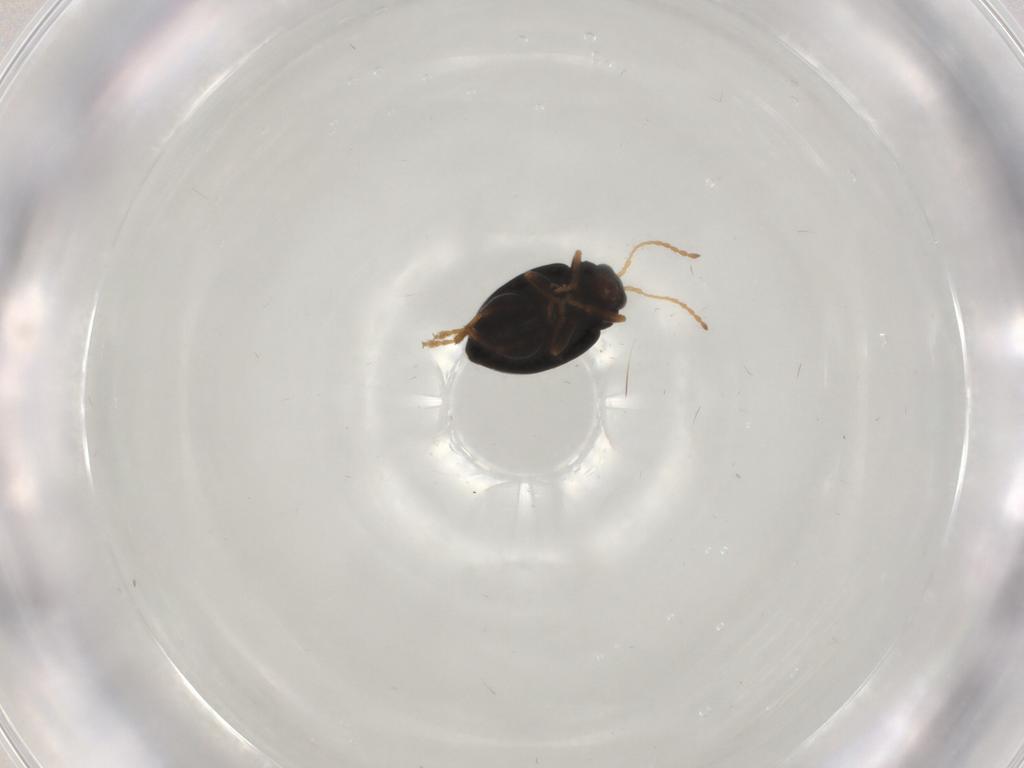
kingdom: Animalia
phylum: Arthropoda
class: Insecta
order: Coleoptera
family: Chrysomelidae
